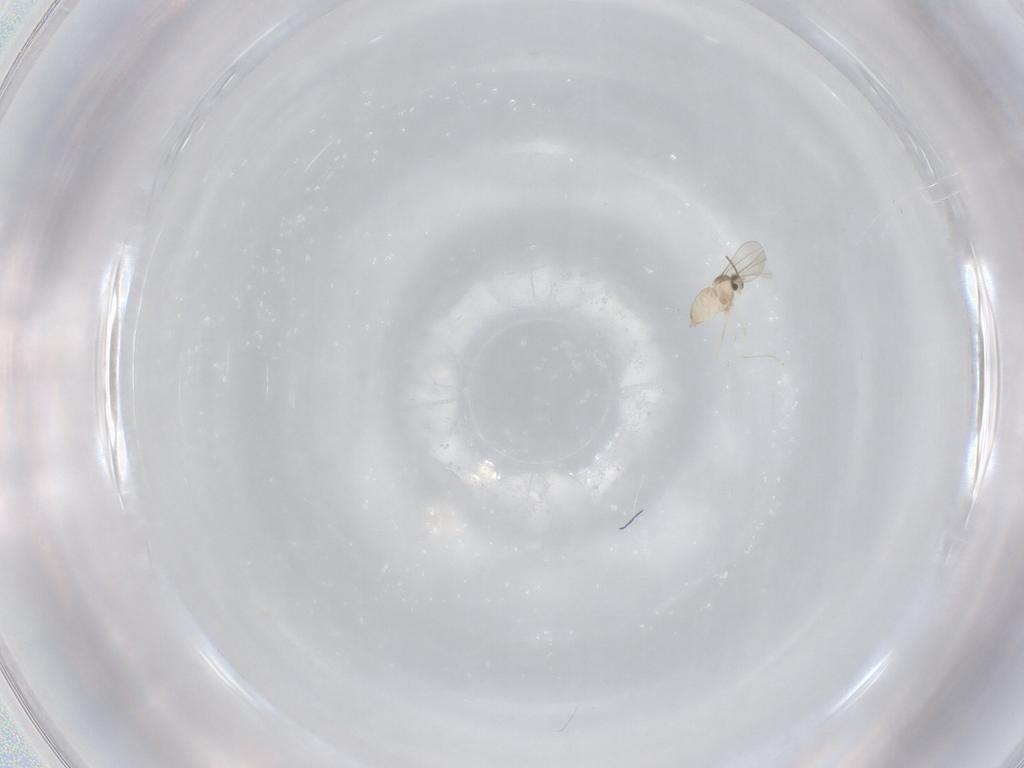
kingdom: Animalia
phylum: Arthropoda
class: Insecta
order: Diptera
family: Cecidomyiidae
